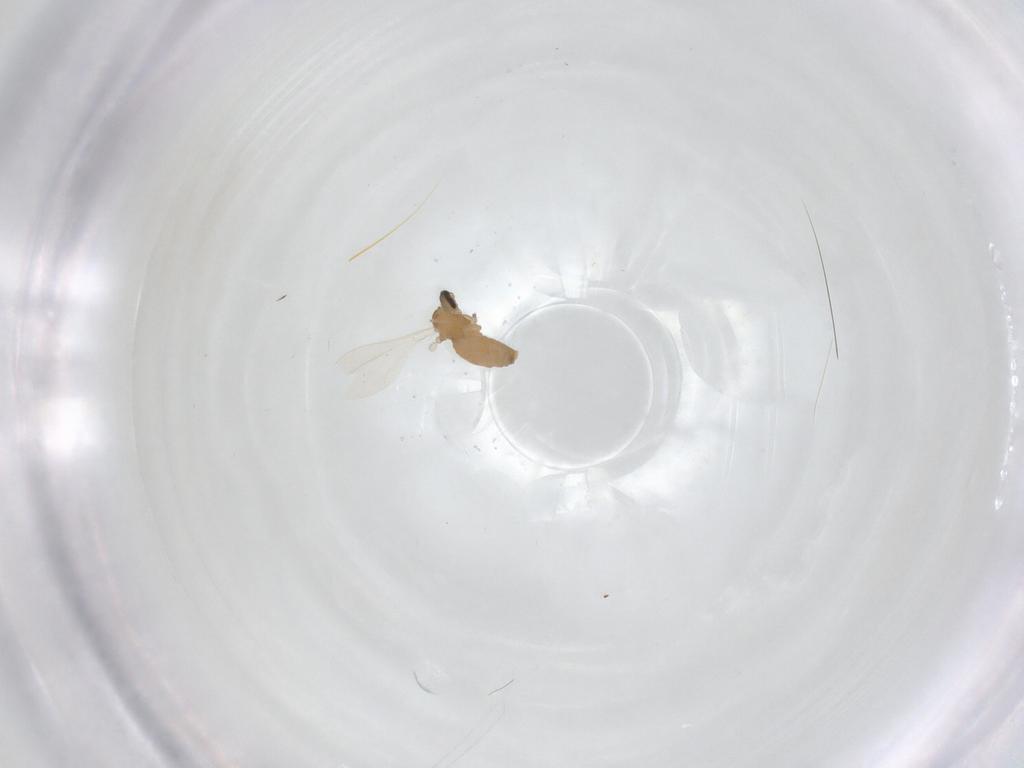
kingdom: Animalia
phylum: Arthropoda
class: Insecta
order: Diptera
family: Cecidomyiidae
